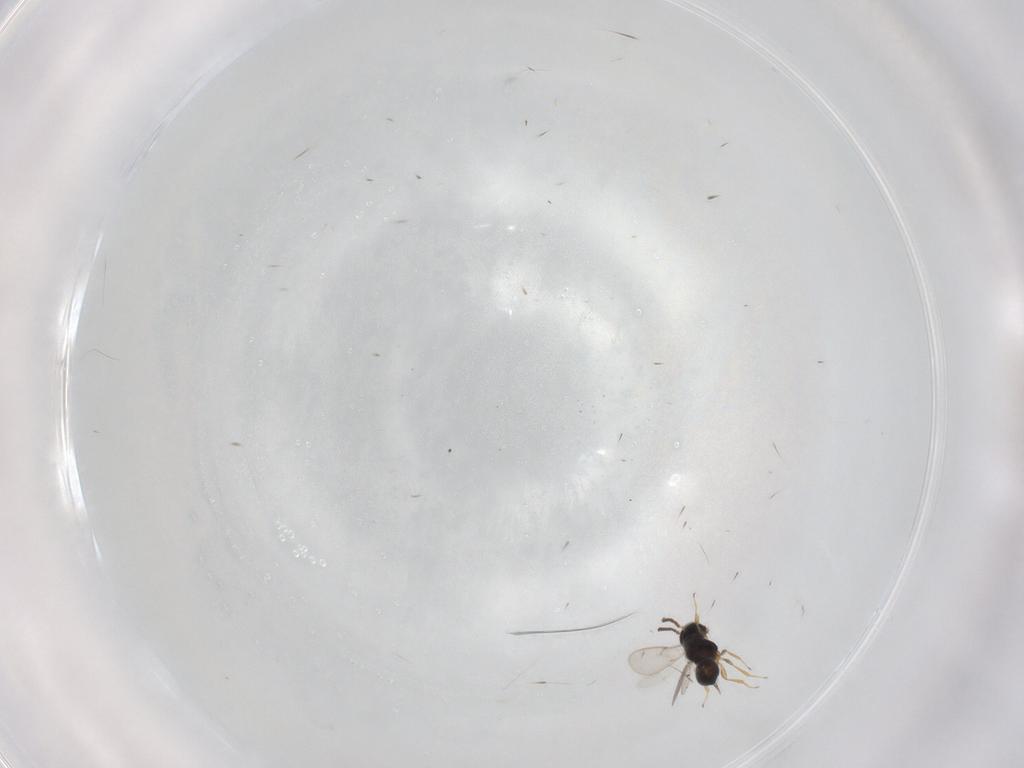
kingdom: Animalia
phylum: Arthropoda
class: Insecta
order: Hymenoptera
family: Scelionidae
